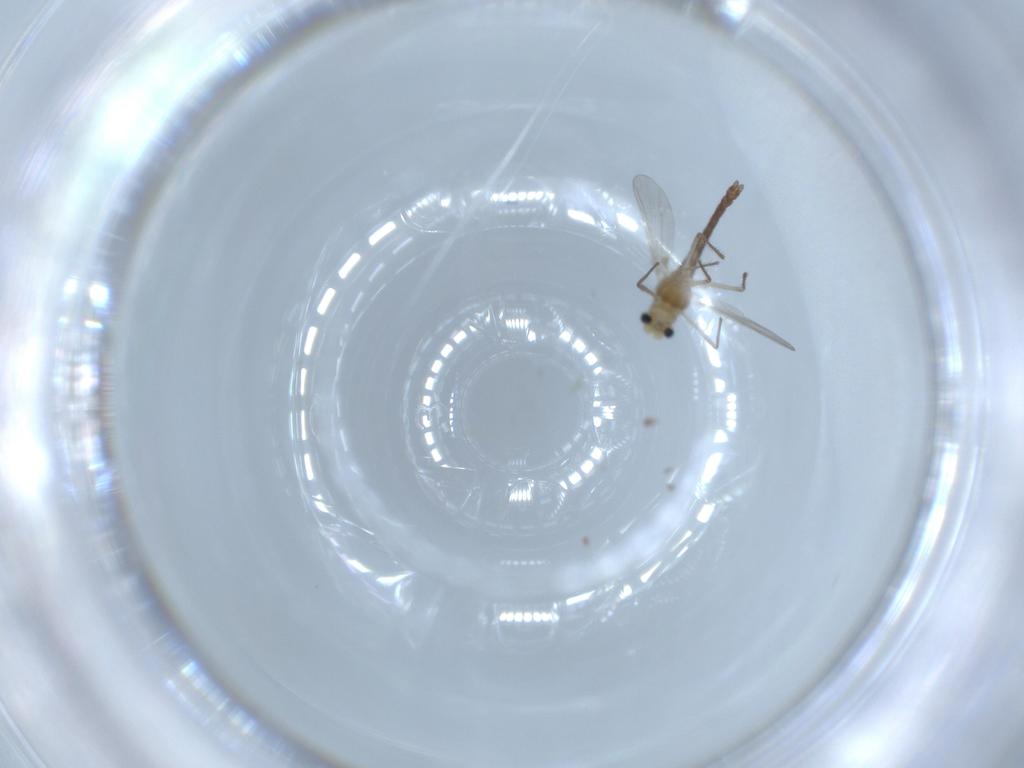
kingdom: Animalia
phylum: Arthropoda
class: Insecta
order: Diptera
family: Chironomidae
